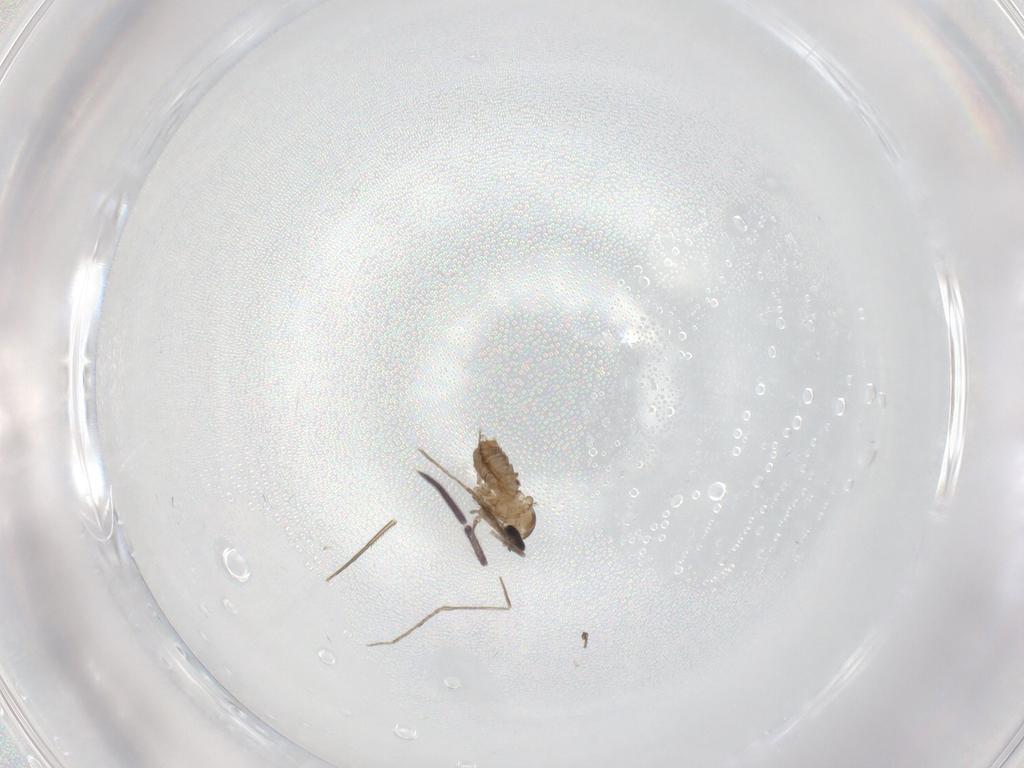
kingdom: Animalia
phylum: Arthropoda
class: Insecta
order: Diptera
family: Cecidomyiidae
